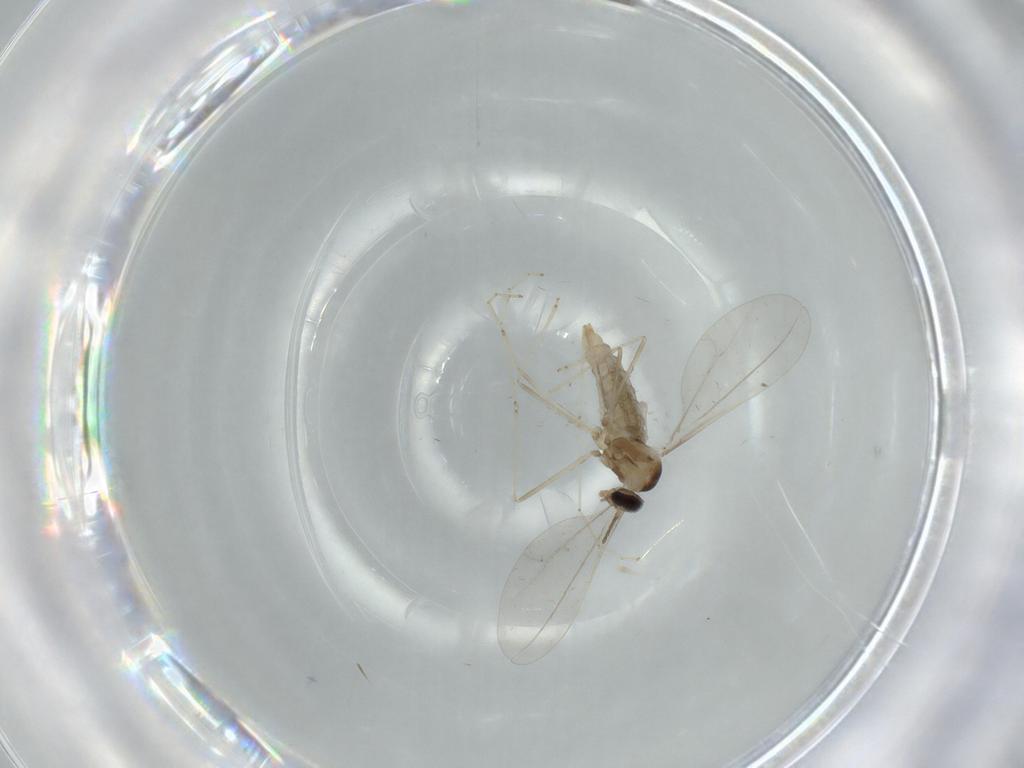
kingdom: Animalia
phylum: Arthropoda
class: Insecta
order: Diptera
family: Cecidomyiidae
